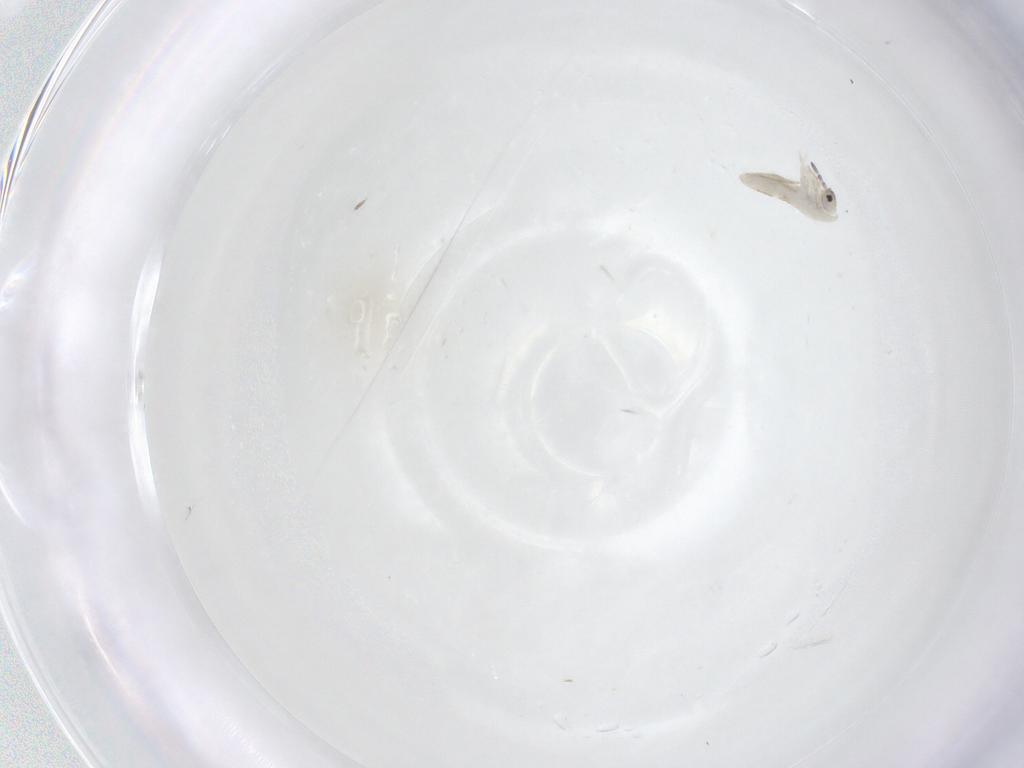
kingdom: Animalia
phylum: Arthropoda
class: Collembola
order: Entomobryomorpha
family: Entomobryidae
